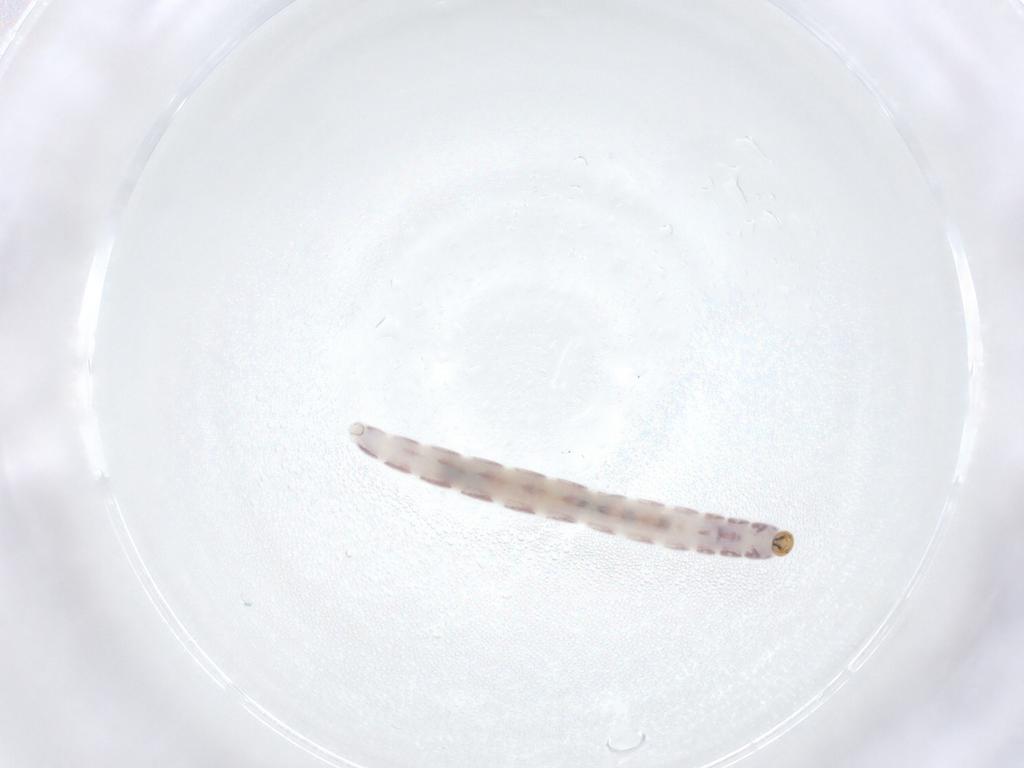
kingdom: Animalia
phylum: Arthropoda
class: Insecta
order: Diptera
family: Chironomidae
